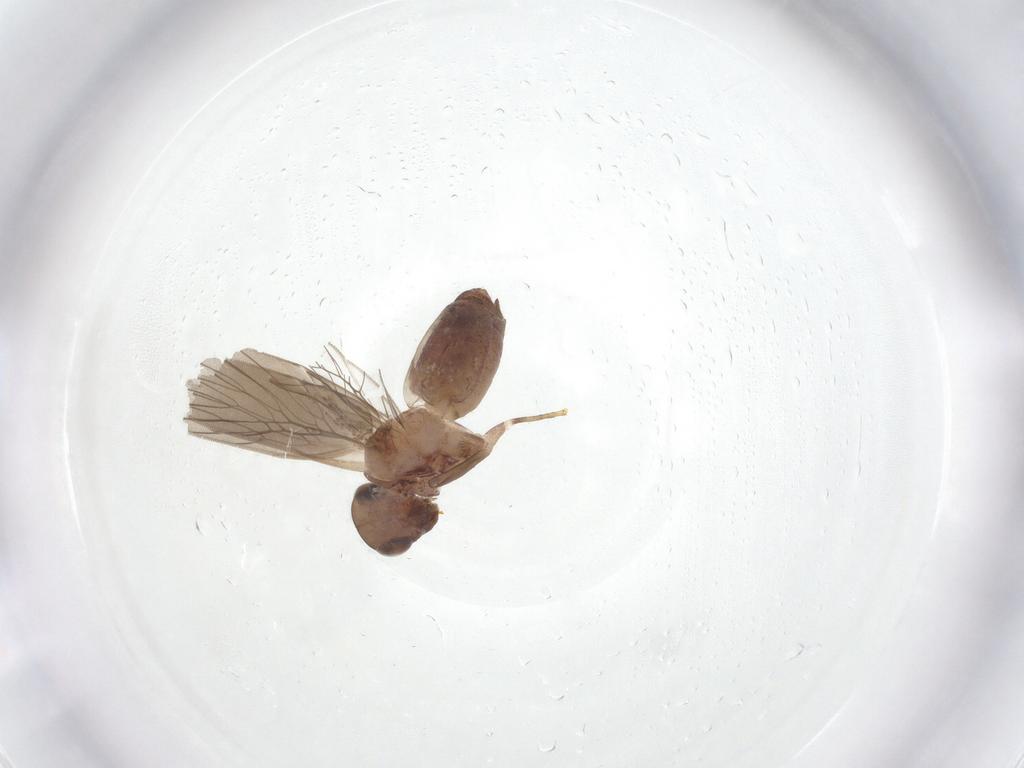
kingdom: Animalia
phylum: Arthropoda
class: Insecta
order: Psocodea
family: Lepidopsocidae
